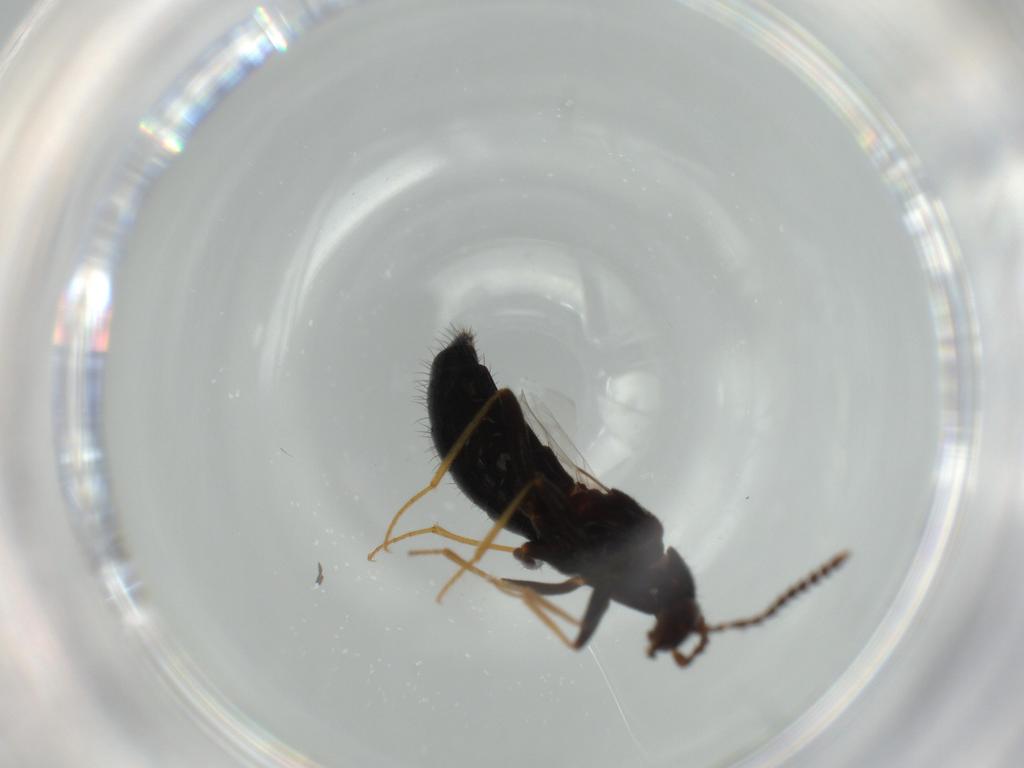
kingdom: Animalia
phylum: Arthropoda
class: Insecta
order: Coleoptera
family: Staphylinidae
